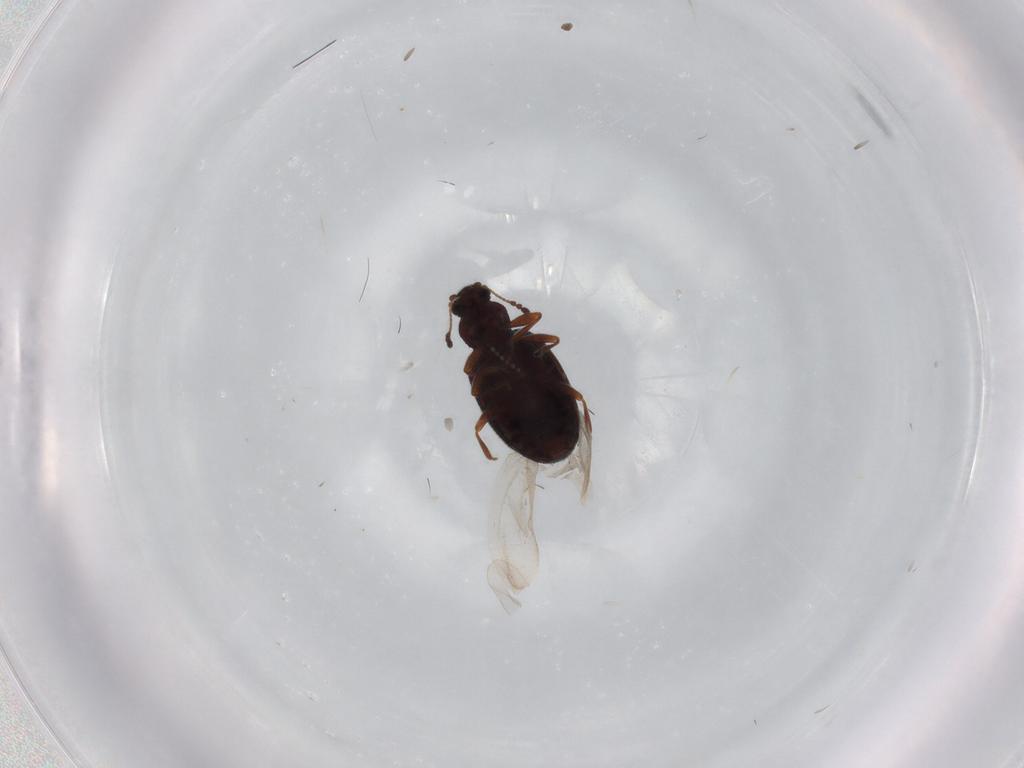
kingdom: Animalia
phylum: Arthropoda
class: Insecta
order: Coleoptera
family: Latridiidae
